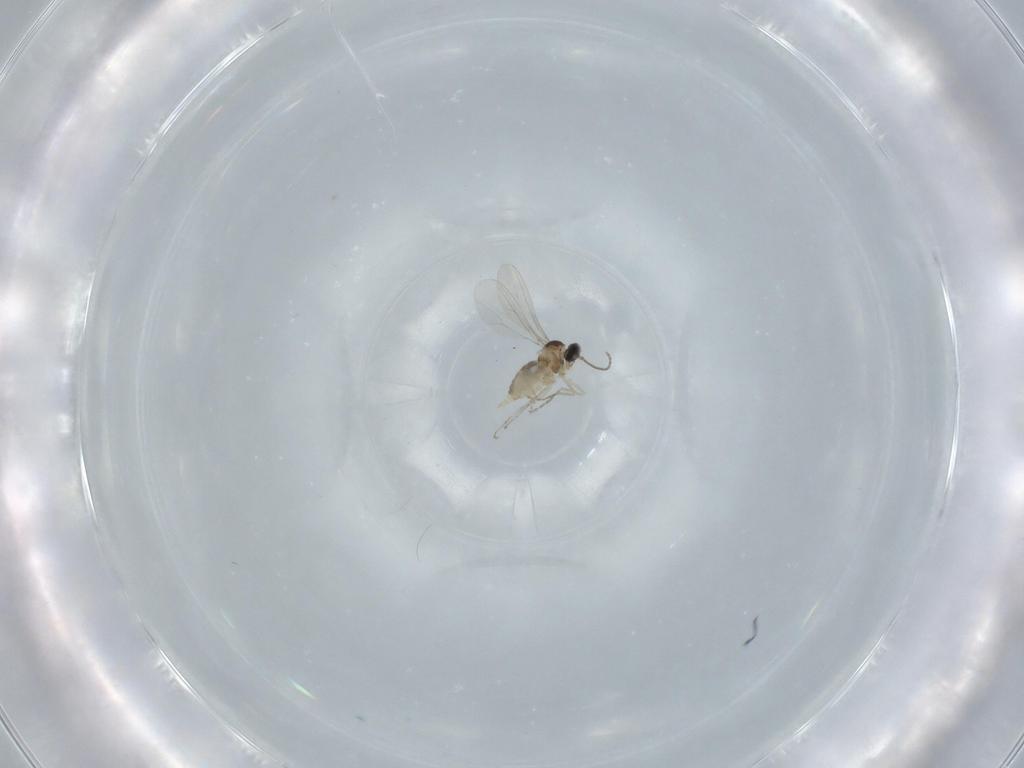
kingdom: Animalia
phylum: Arthropoda
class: Insecta
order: Diptera
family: Cecidomyiidae
